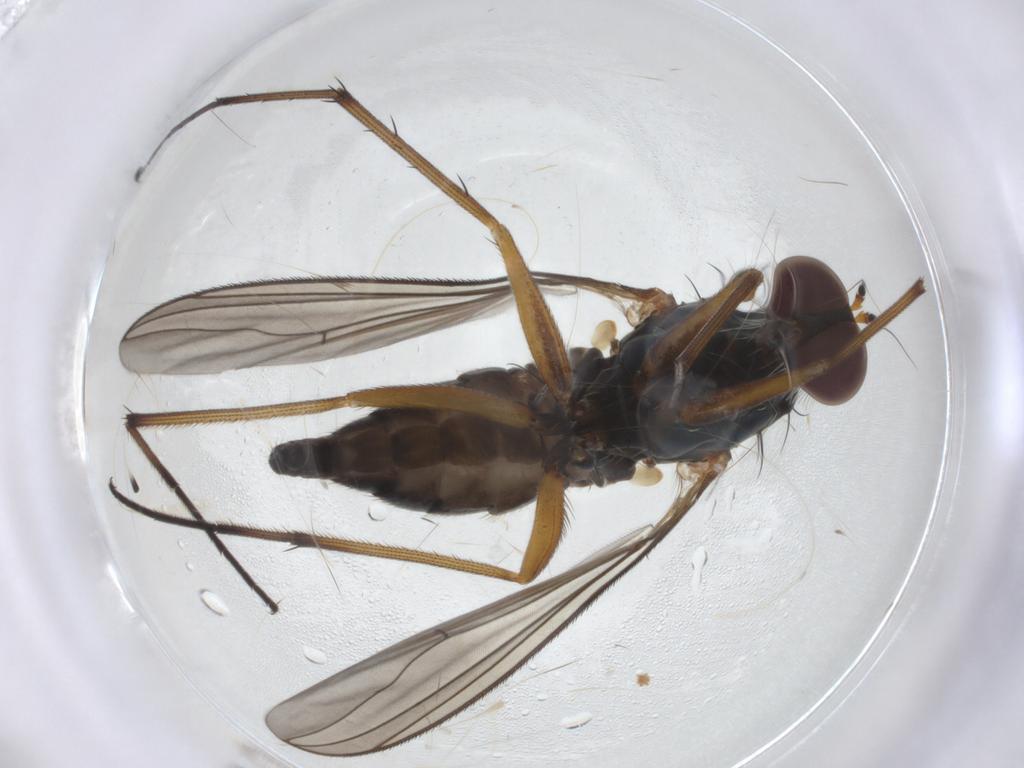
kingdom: Animalia
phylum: Arthropoda
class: Insecta
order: Diptera
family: Dolichopodidae
